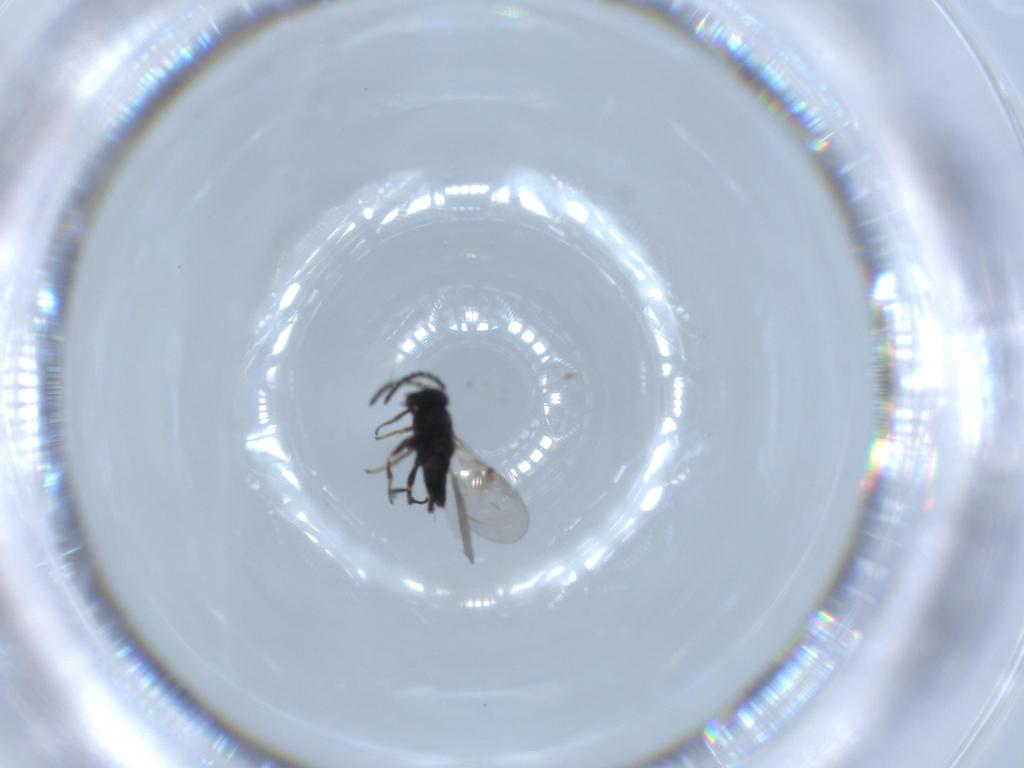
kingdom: Animalia
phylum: Arthropoda
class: Insecta
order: Hymenoptera
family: Encyrtidae
